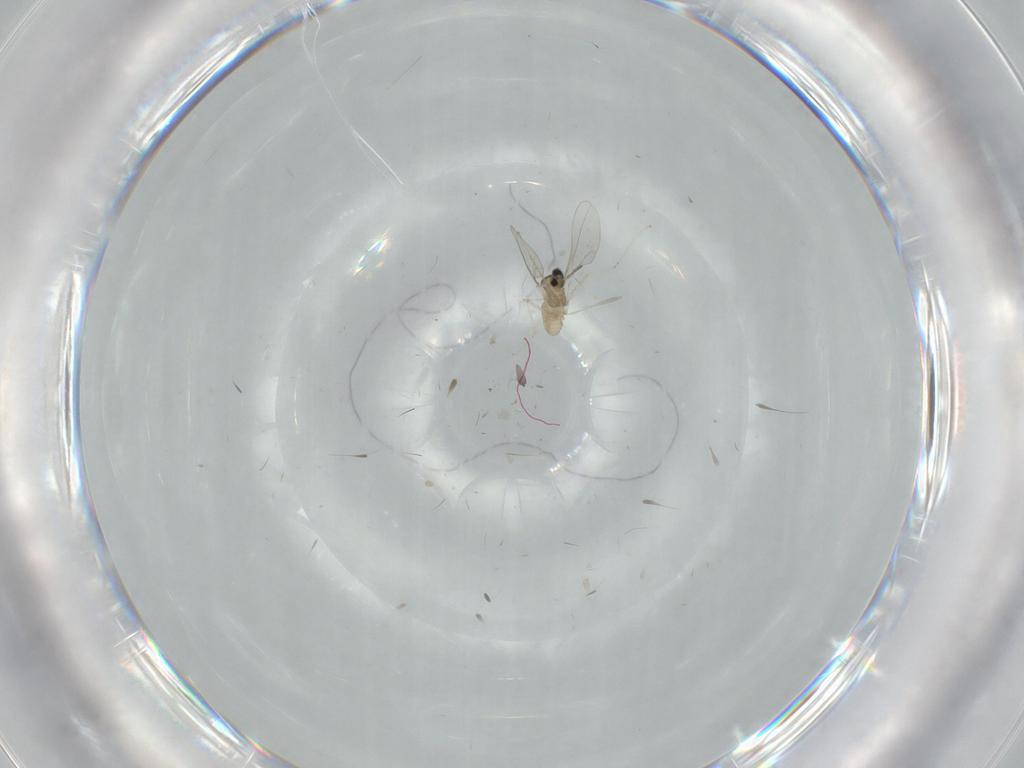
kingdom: Animalia
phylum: Arthropoda
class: Insecta
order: Diptera
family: Cecidomyiidae
